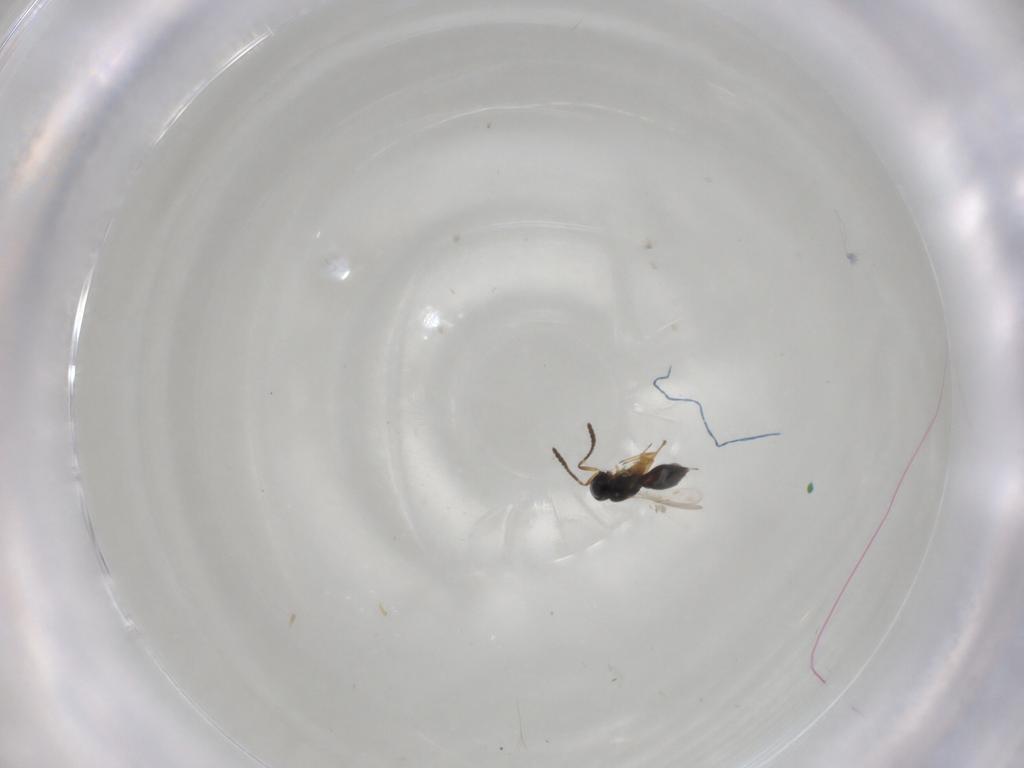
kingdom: Animalia
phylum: Arthropoda
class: Insecta
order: Hymenoptera
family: Scelionidae
